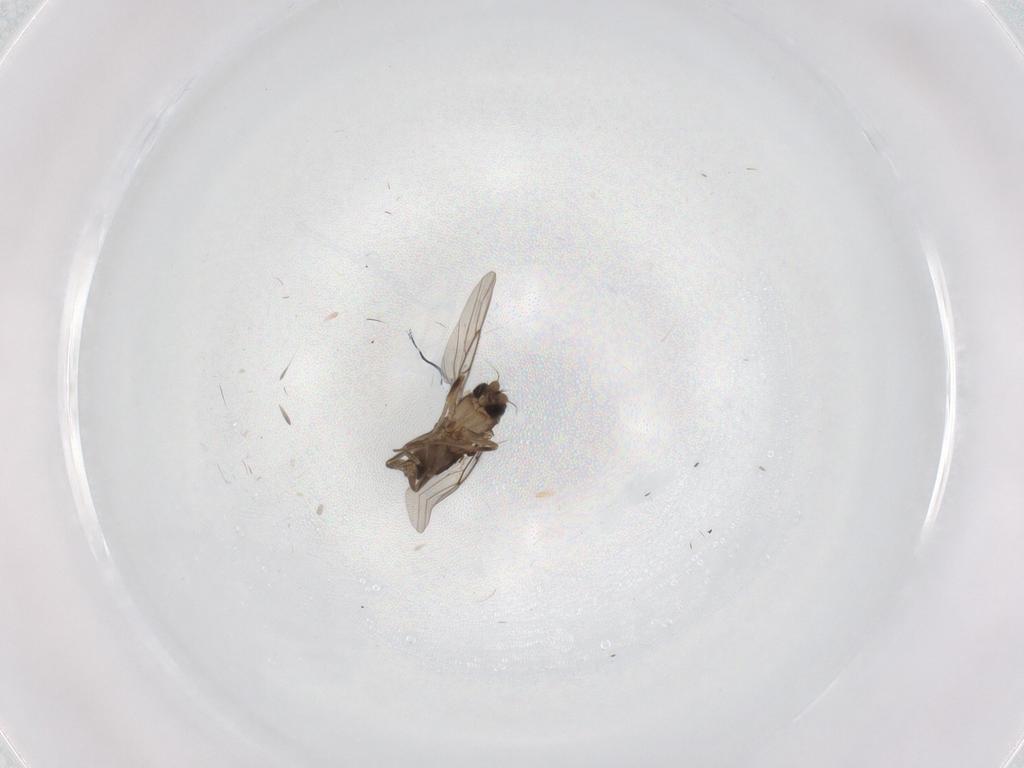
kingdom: Animalia
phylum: Arthropoda
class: Insecta
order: Diptera
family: Phoridae
